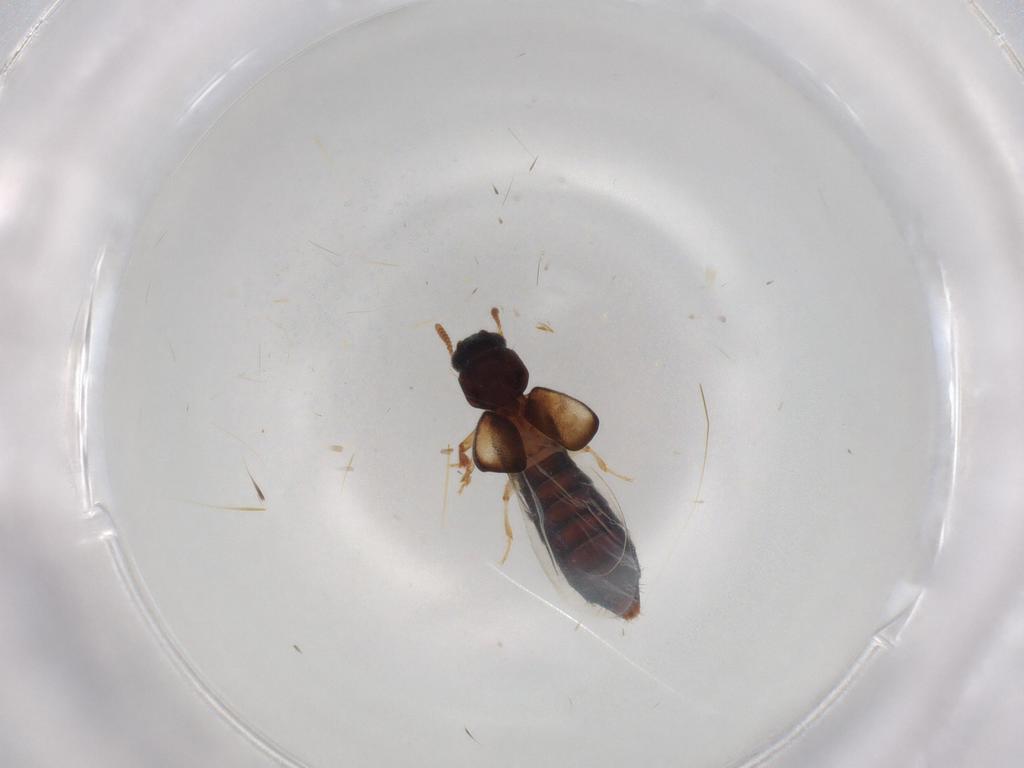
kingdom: Animalia
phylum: Arthropoda
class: Insecta
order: Coleoptera
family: Staphylinidae
